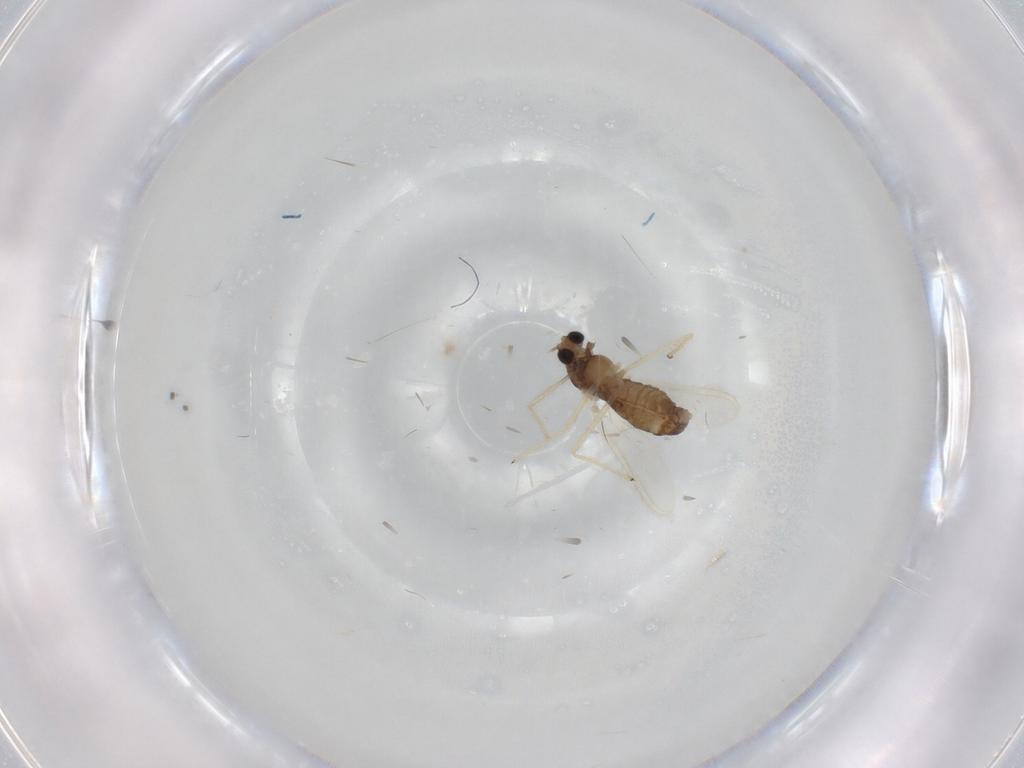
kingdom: Animalia
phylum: Arthropoda
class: Insecta
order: Diptera
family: Chironomidae
